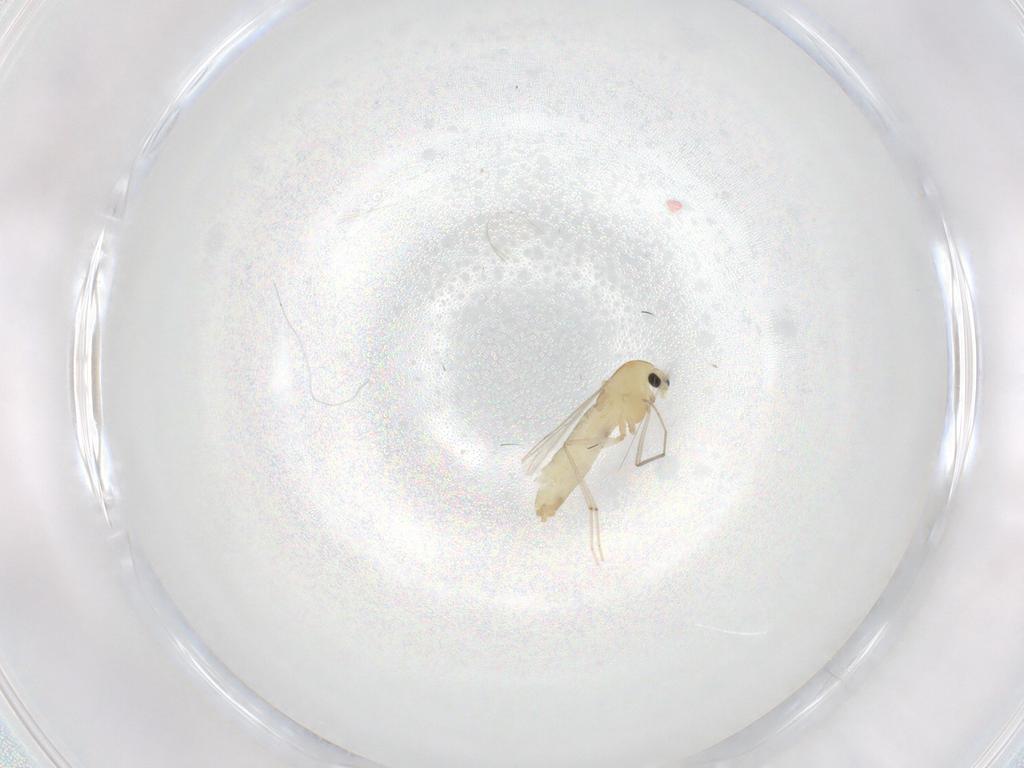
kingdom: Animalia
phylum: Arthropoda
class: Insecta
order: Diptera
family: Chironomidae
